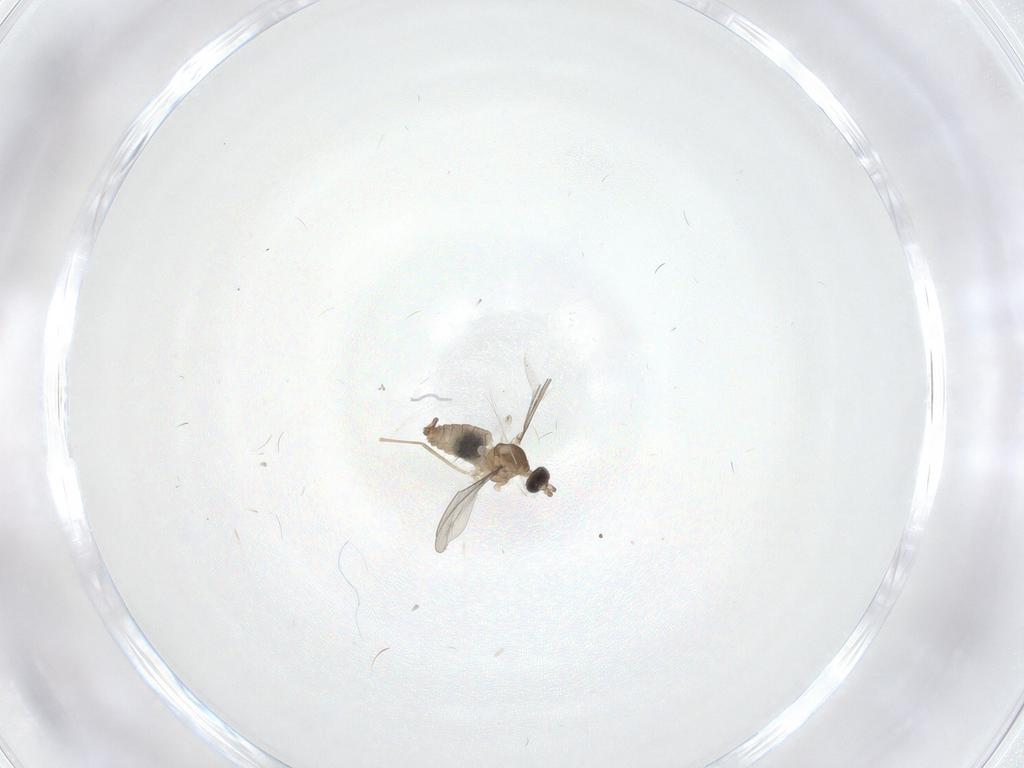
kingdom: Animalia
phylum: Arthropoda
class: Insecta
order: Diptera
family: Cecidomyiidae
